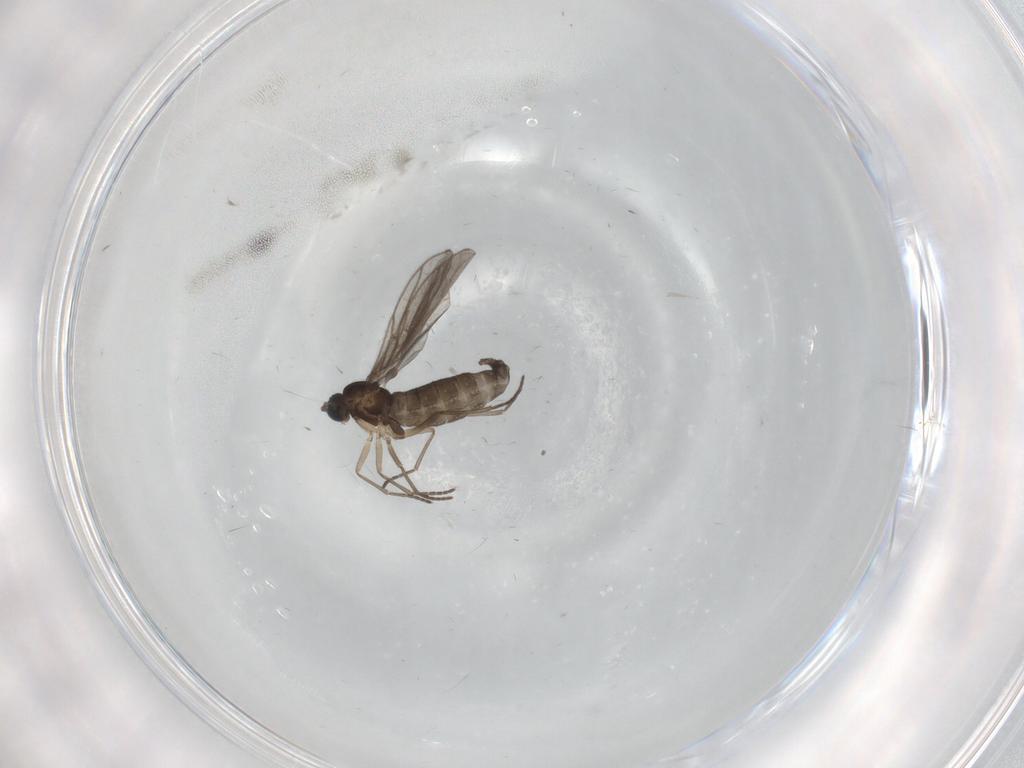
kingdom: Animalia
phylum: Arthropoda
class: Insecta
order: Diptera
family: Sciaridae
